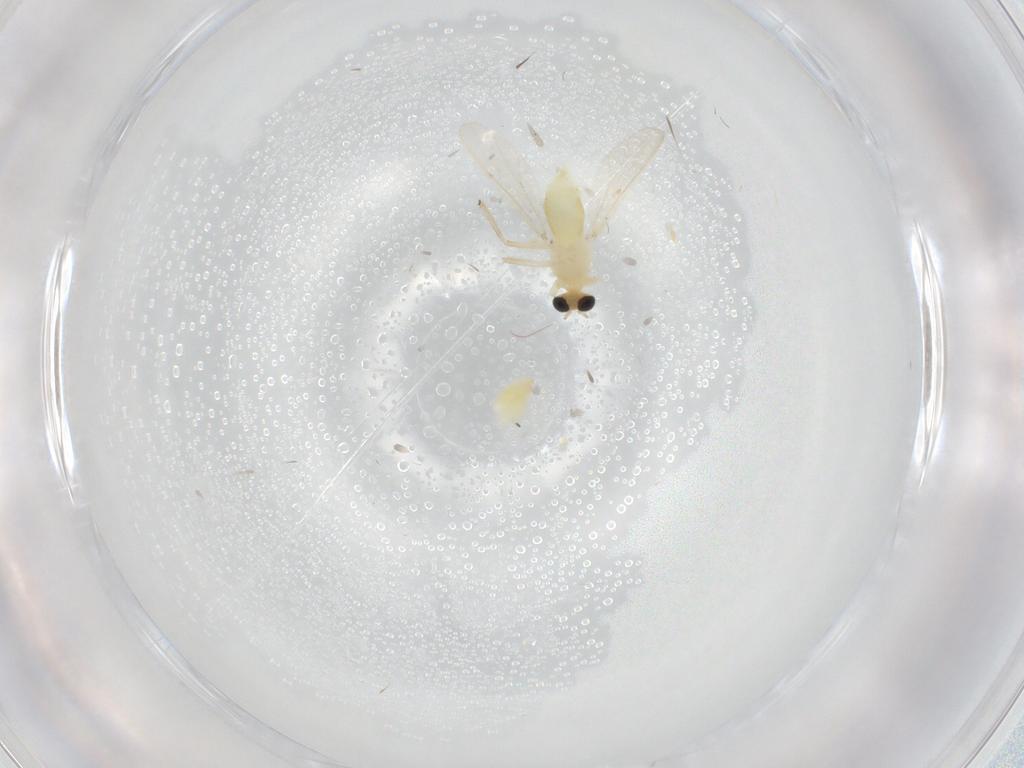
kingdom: Animalia
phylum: Arthropoda
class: Insecta
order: Diptera
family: Chironomidae
